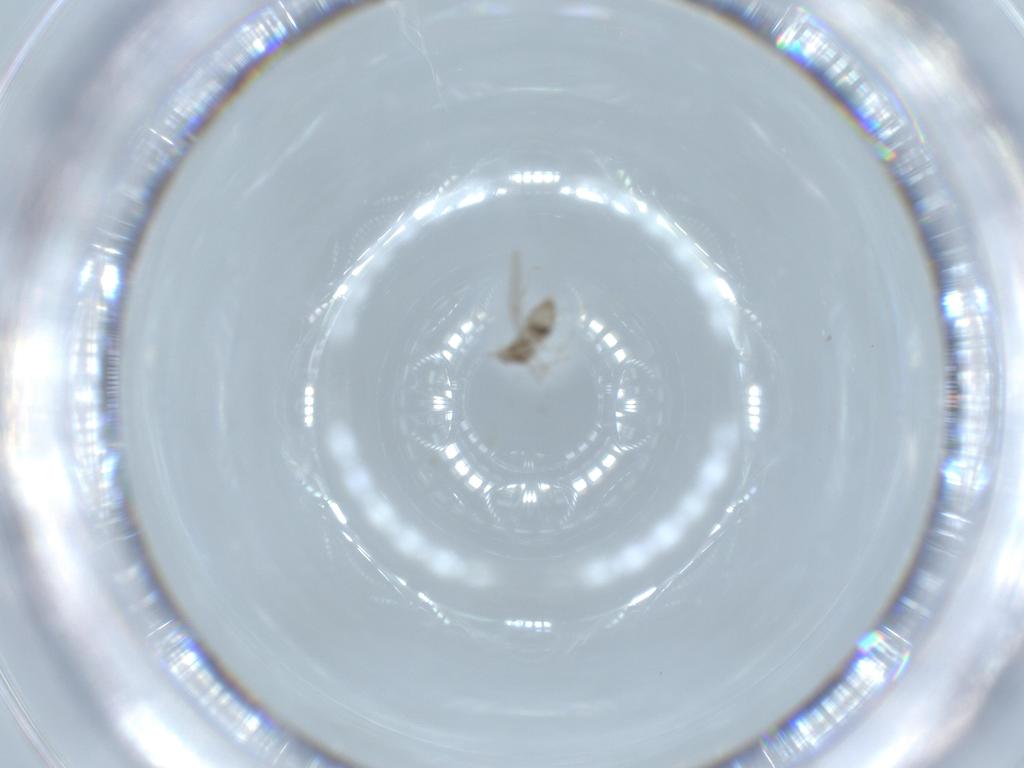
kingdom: Animalia
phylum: Arthropoda
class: Insecta
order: Diptera
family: Cecidomyiidae
